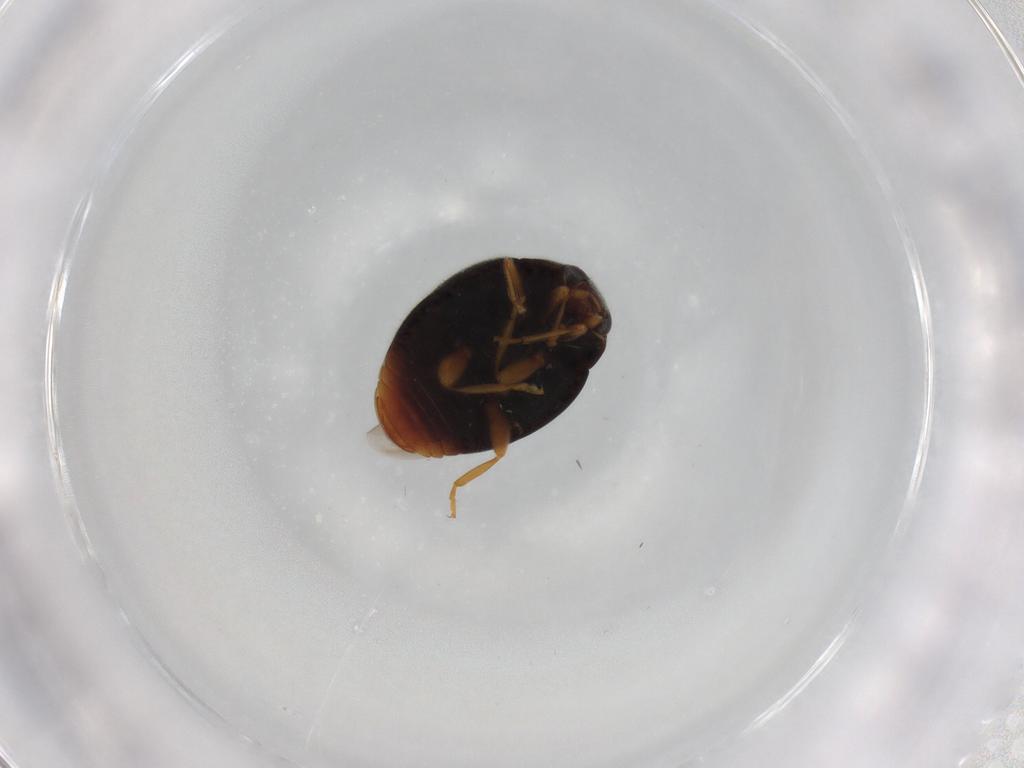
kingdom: Animalia
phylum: Arthropoda
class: Insecta
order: Coleoptera
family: Coccinellidae
